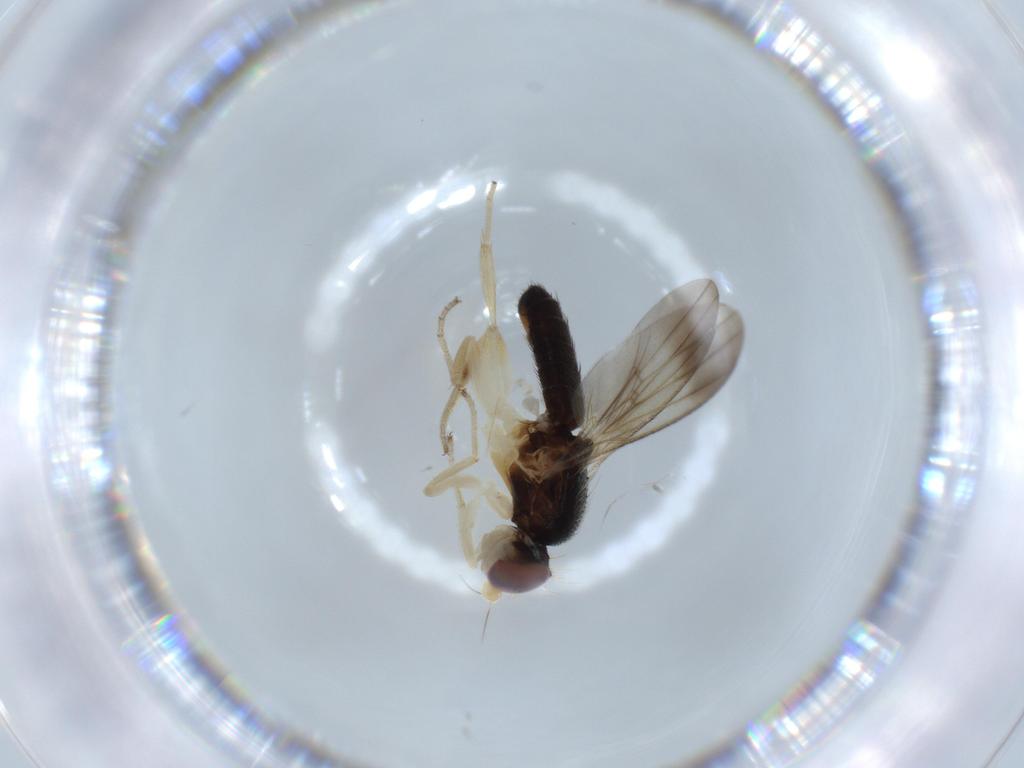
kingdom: Animalia
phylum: Arthropoda
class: Insecta
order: Diptera
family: Clusiidae
